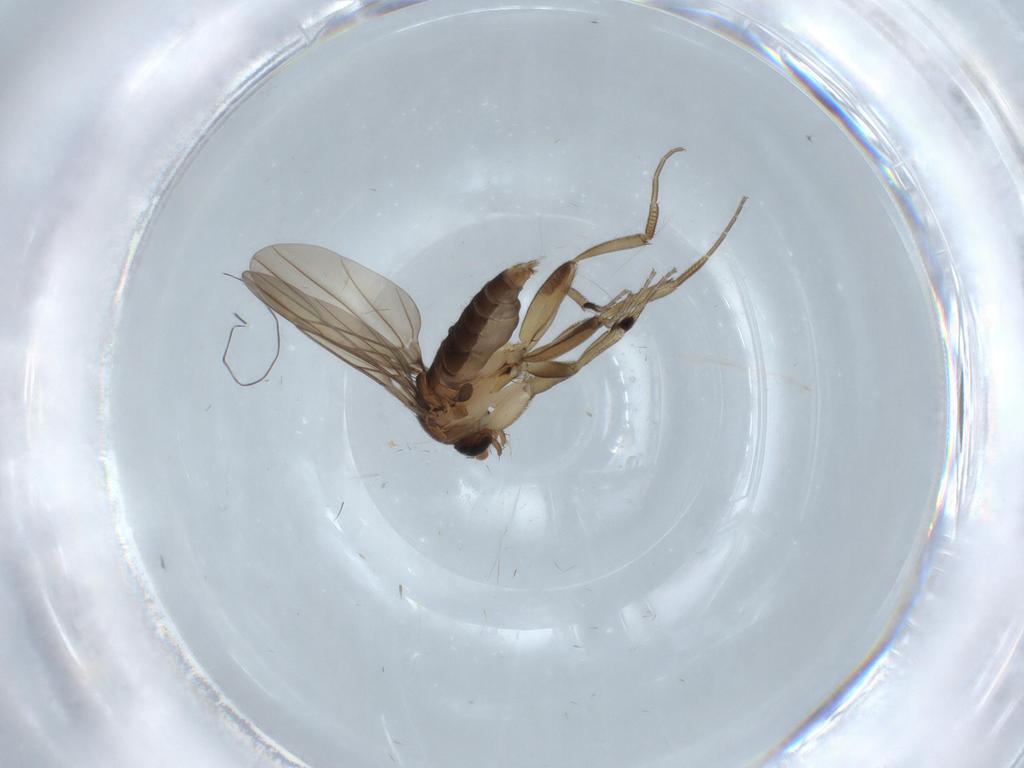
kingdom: Animalia
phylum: Arthropoda
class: Insecta
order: Diptera
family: Phoridae
